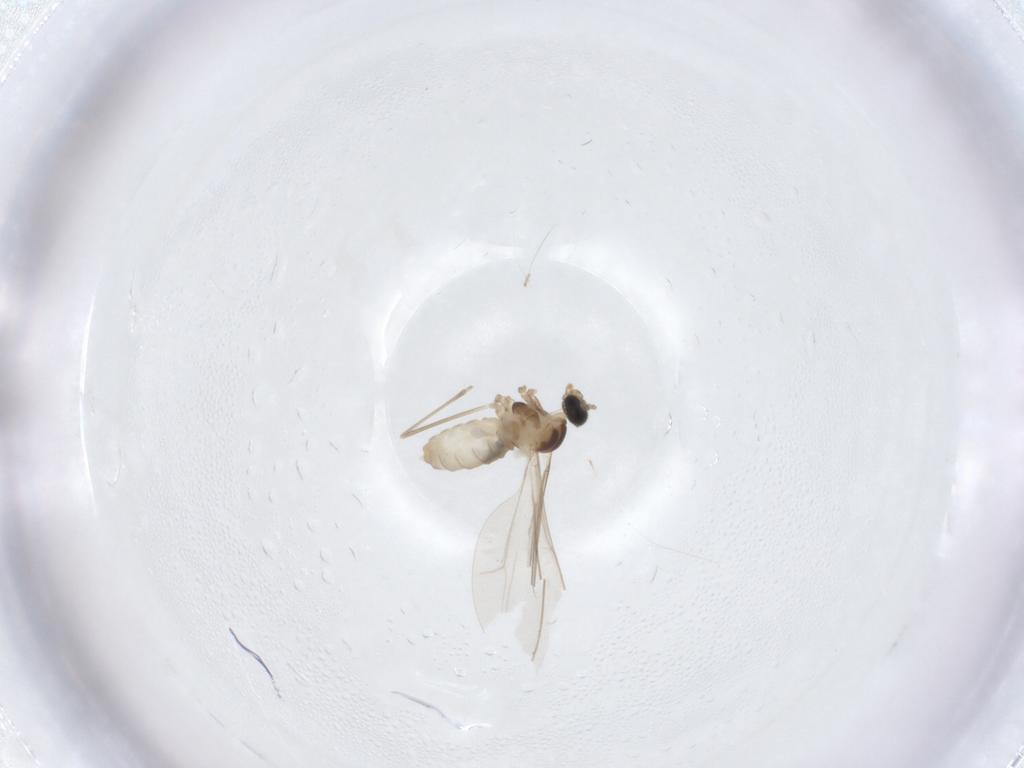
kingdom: Animalia
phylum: Arthropoda
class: Insecta
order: Diptera
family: Cecidomyiidae
